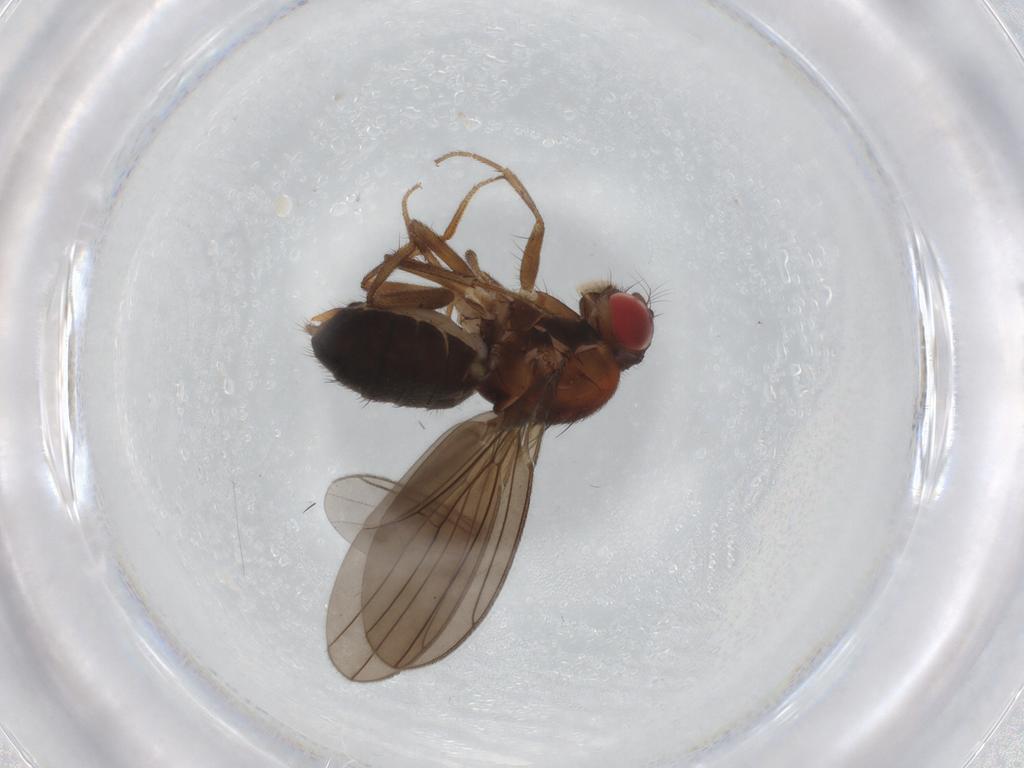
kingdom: Animalia
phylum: Arthropoda
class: Insecta
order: Diptera
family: Drosophilidae
